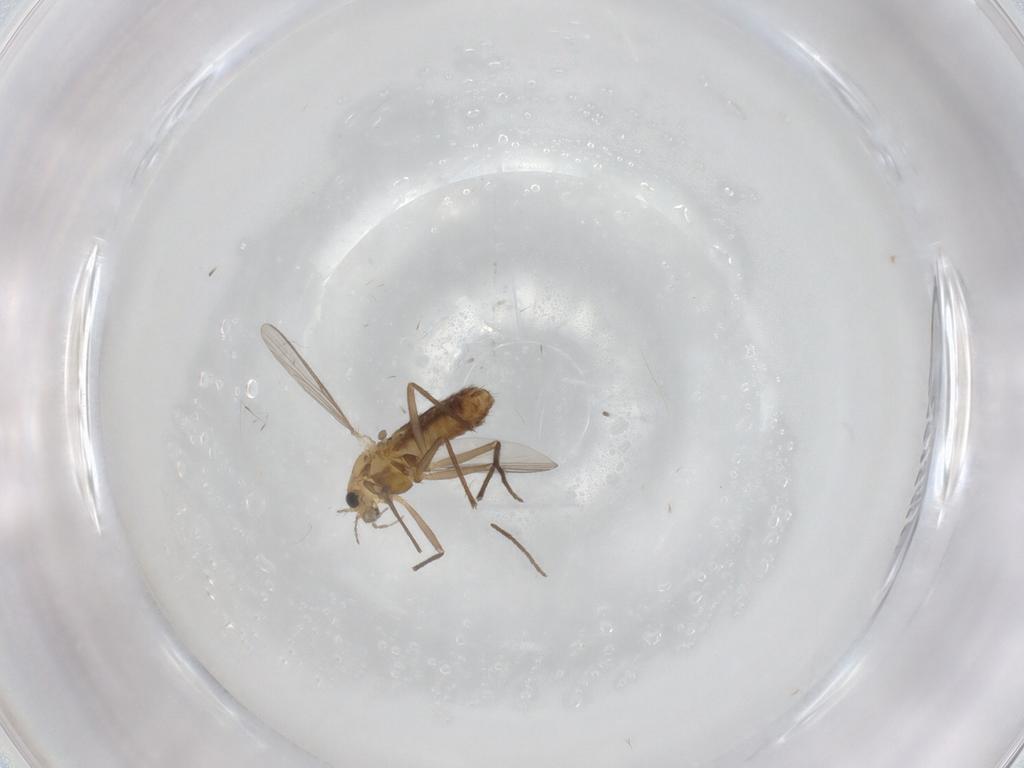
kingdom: Animalia
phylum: Arthropoda
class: Insecta
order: Diptera
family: Chironomidae
